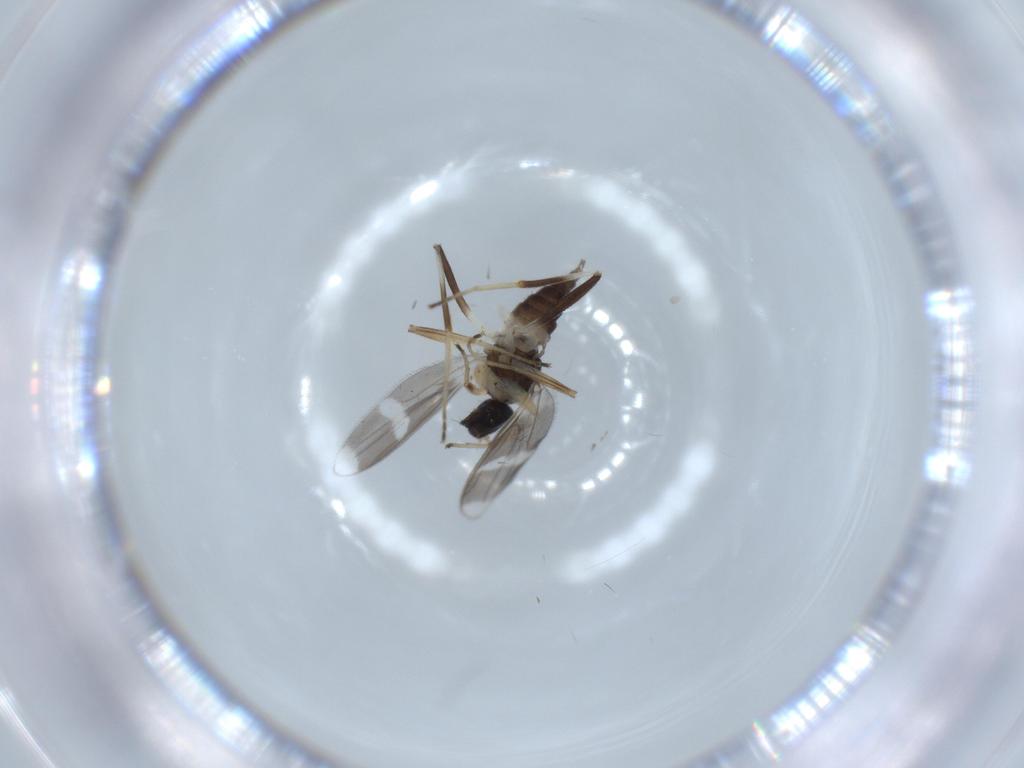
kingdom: Animalia
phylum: Arthropoda
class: Insecta
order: Diptera
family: Hybotidae
